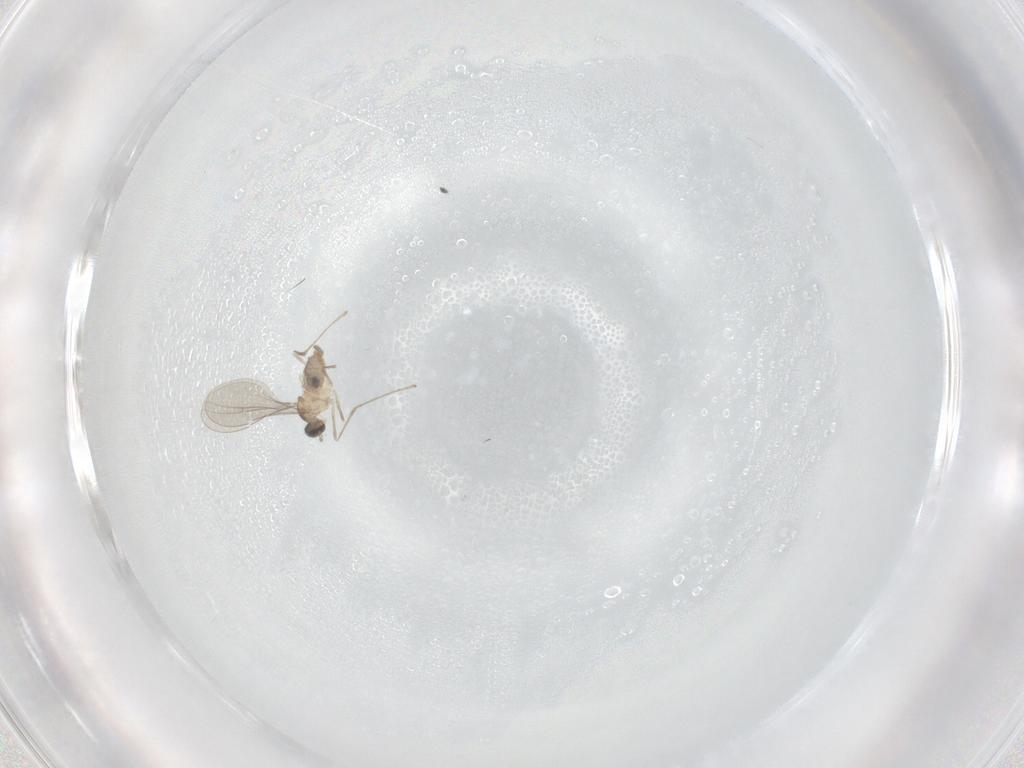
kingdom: Animalia
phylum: Arthropoda
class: Insecta
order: Diptera
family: Cecidomyiidae
